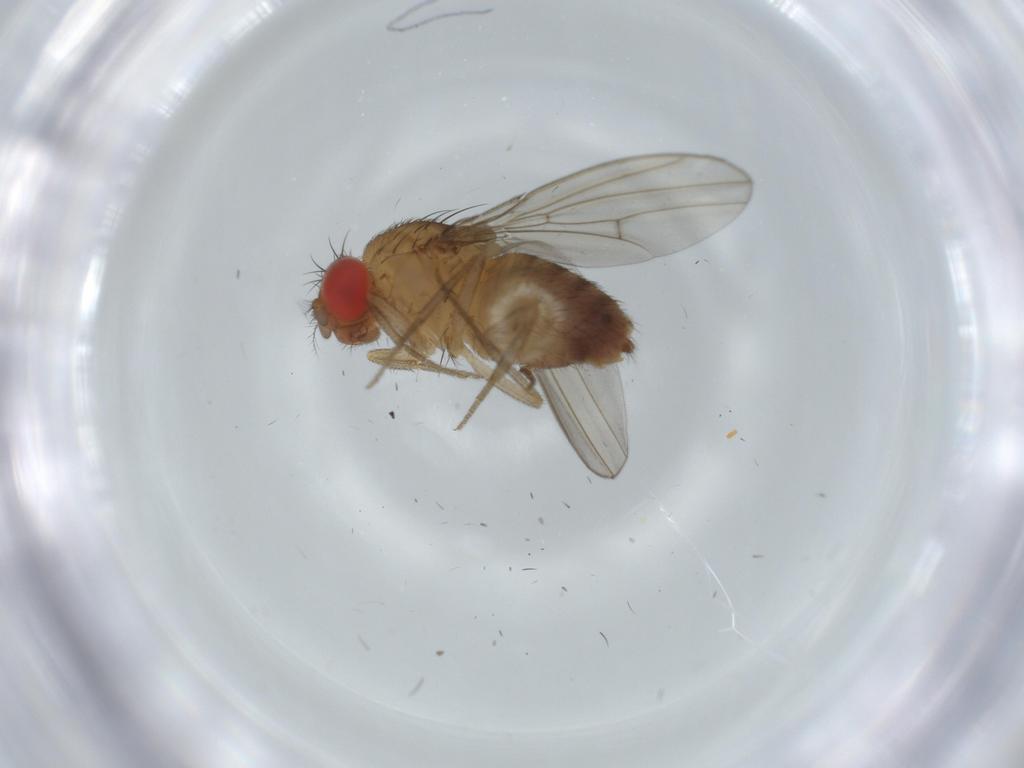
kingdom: Animalia
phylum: Arthropoda
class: Insecta
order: Diptera
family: Drosophilidae
